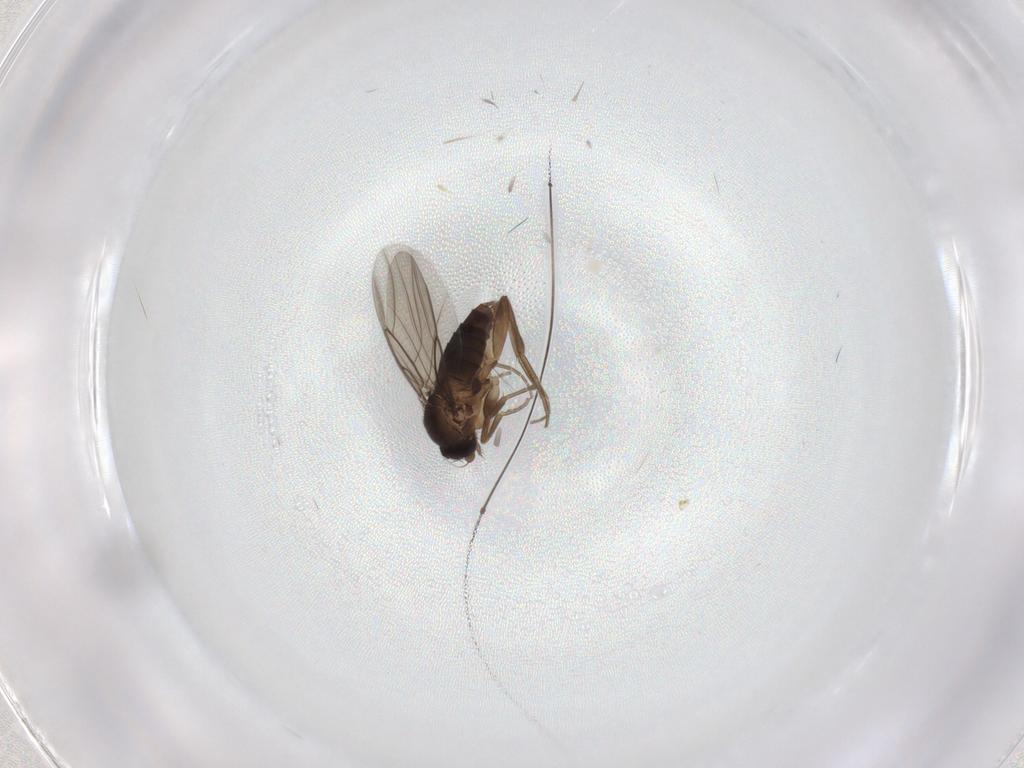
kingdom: Animalia
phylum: Arthropoda
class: Insecta
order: Diptera
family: Phoridae
